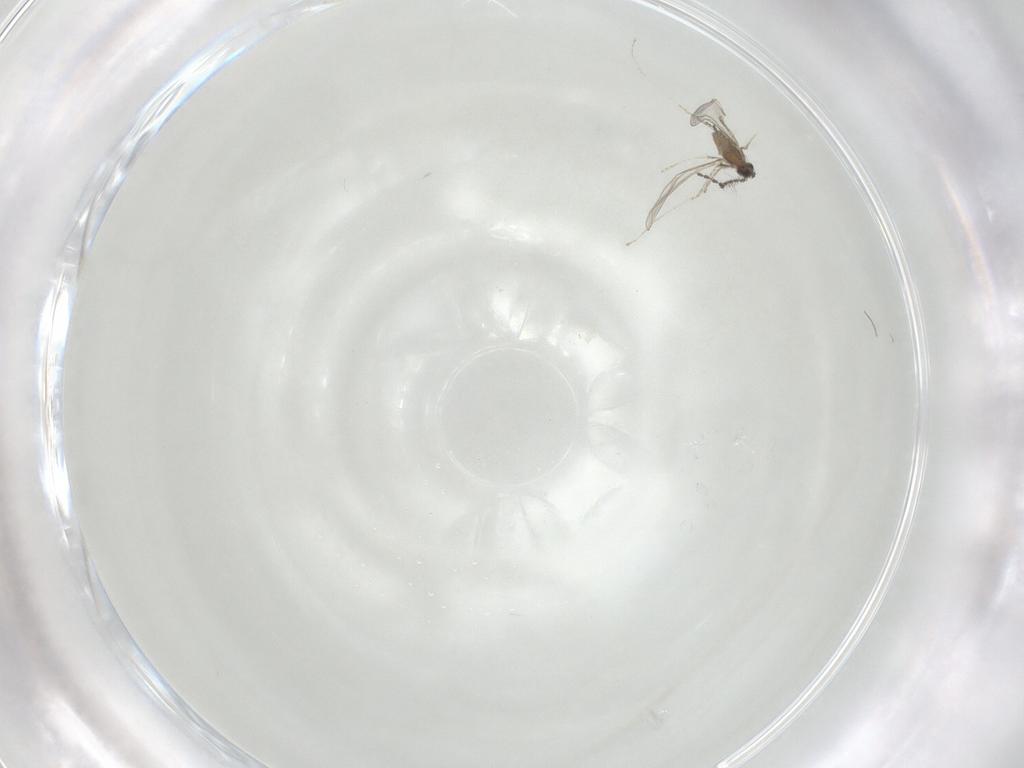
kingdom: Animalia
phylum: Arthropoda
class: Insecta
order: Diptera
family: Cecidomyiidae
